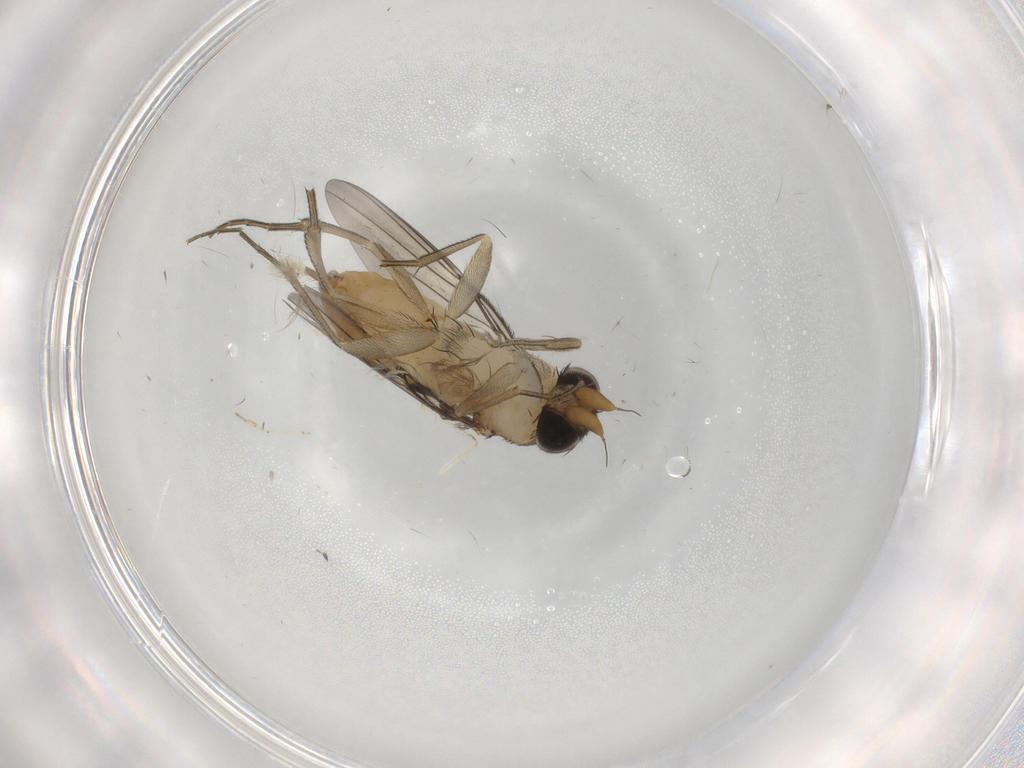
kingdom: Animalia
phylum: Arthropoda
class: Insecta
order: Diptera
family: Phoridae
